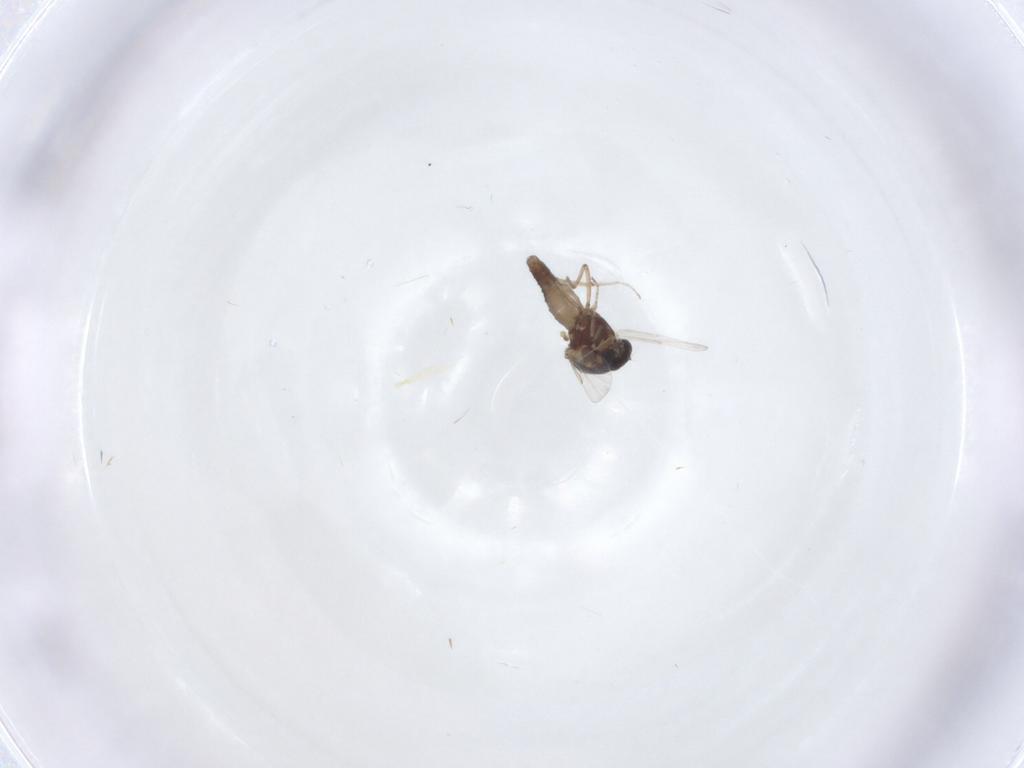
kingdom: Animalia
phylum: Arthropoda
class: Insecta
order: Diptera
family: Ceratopogonidae
